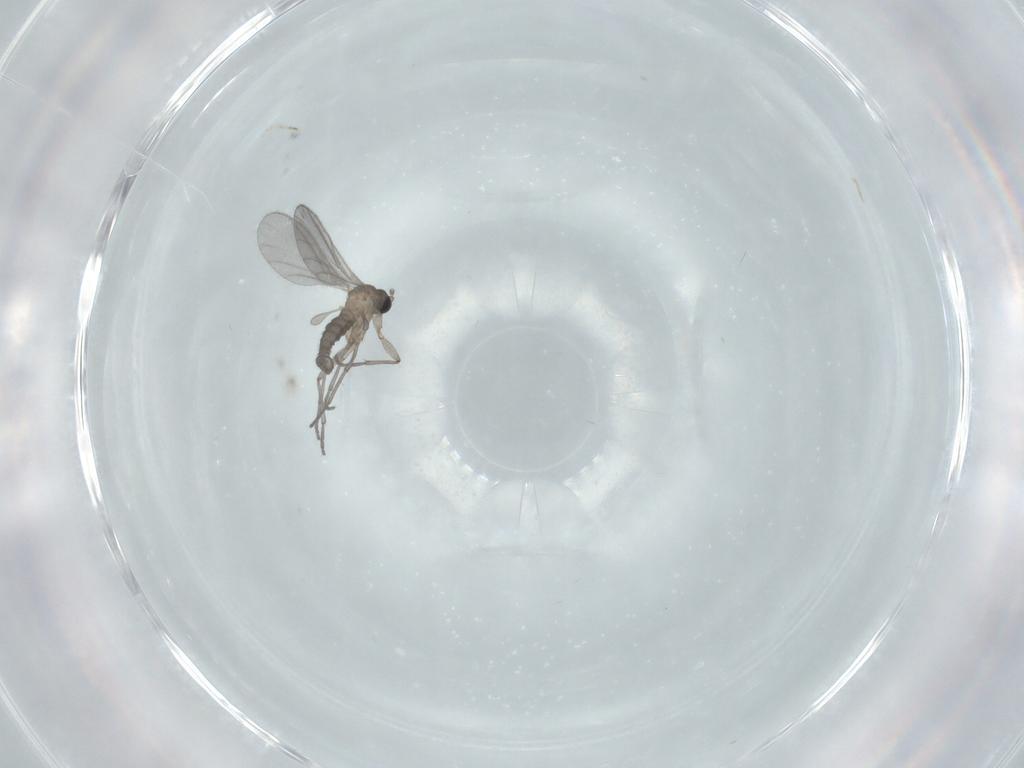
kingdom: Animalia
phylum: Arthropoda
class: Insecta
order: Diptera
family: Sciaridae
